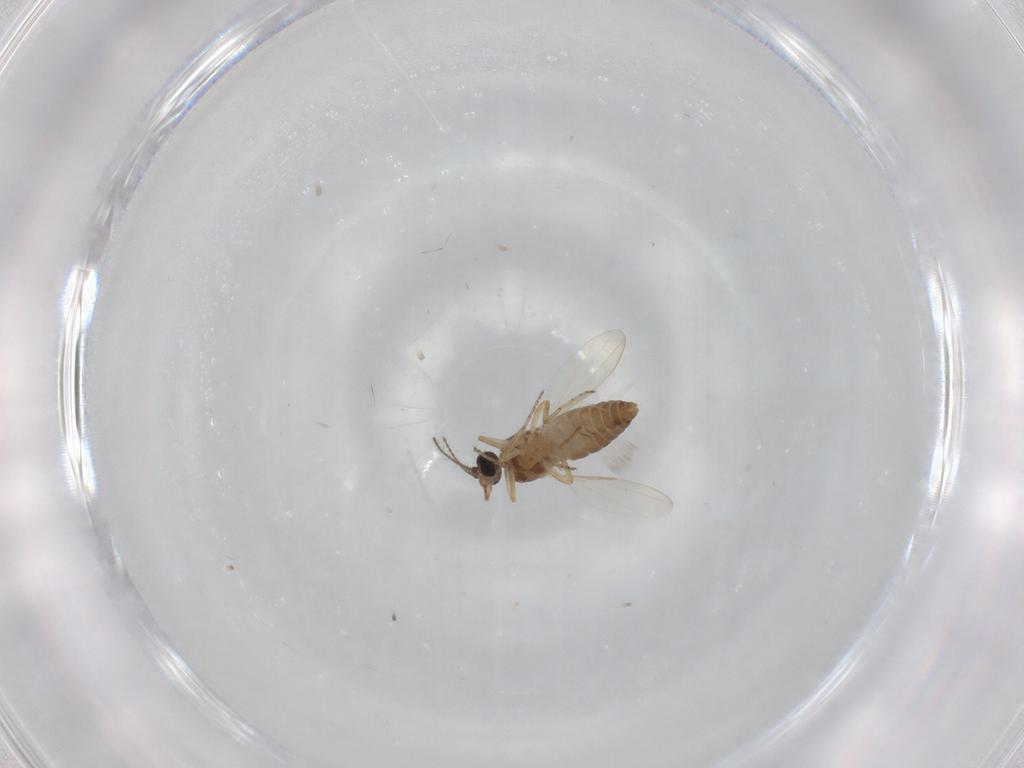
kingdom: Animalia
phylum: Arthropoda
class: Insecta
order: Diptera
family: Ceratopogonidae
